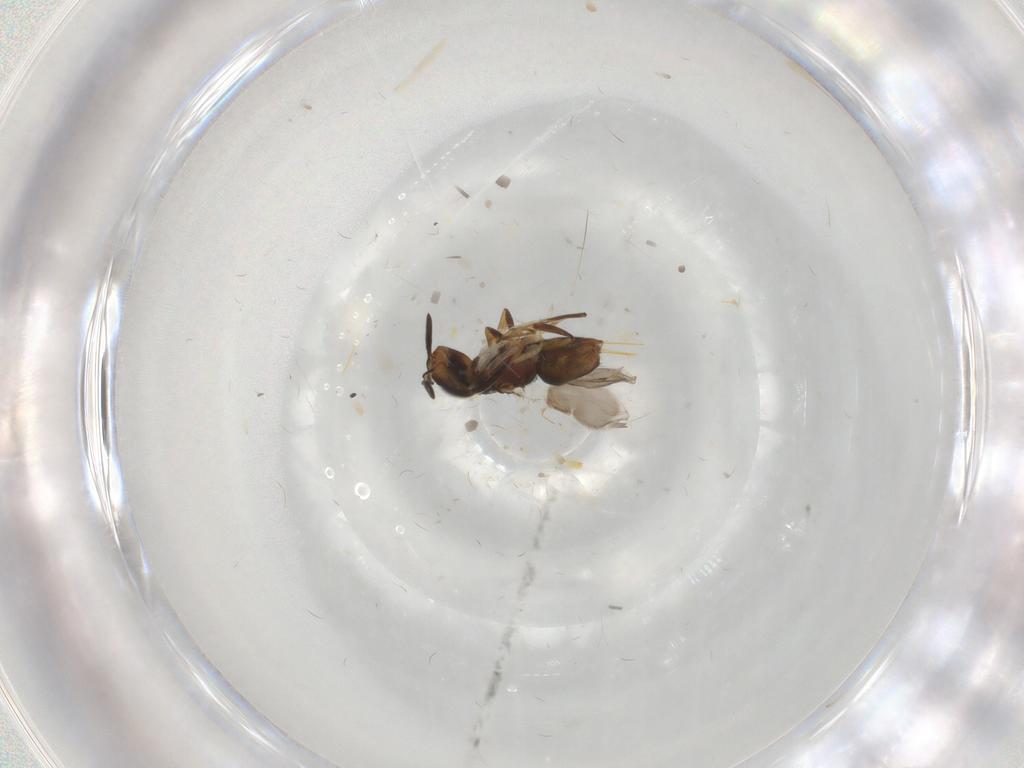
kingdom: Animalia
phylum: Arthropoda
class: Insecta
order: Hymenoptera
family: Encyrtidae
